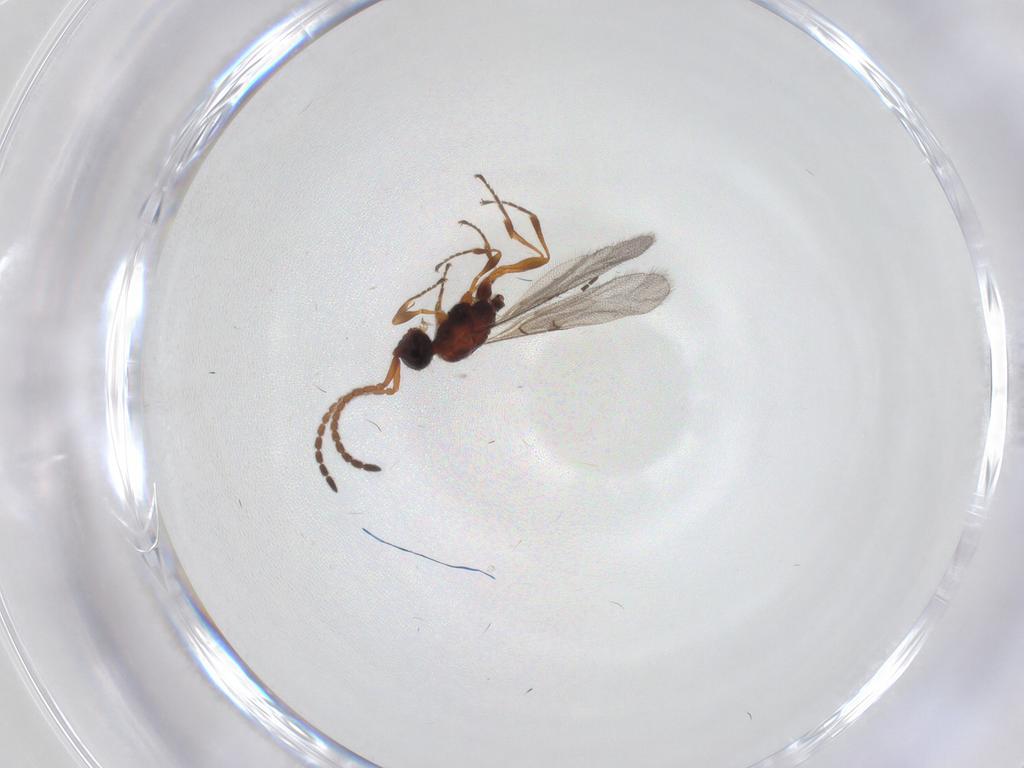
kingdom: Animalia
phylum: Arthropoda
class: Insecta
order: Hymenoptera
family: Diapriidae
